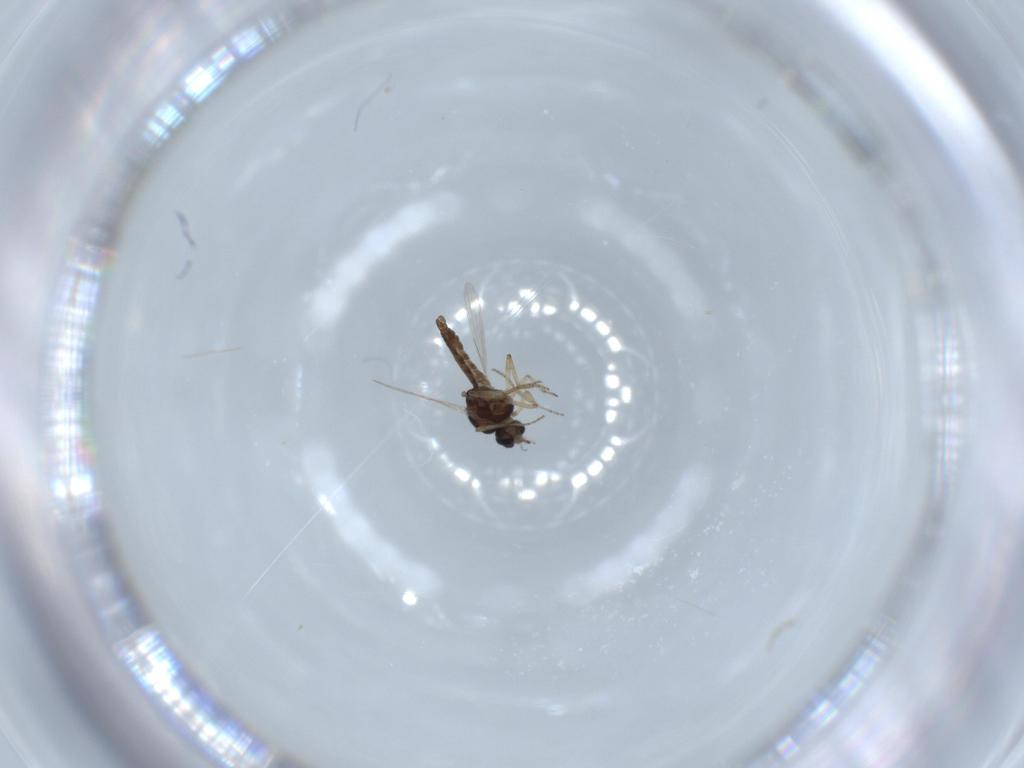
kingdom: Animalia
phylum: Arthropoda
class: Insecta
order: Diptera
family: Ceratopogonidae
